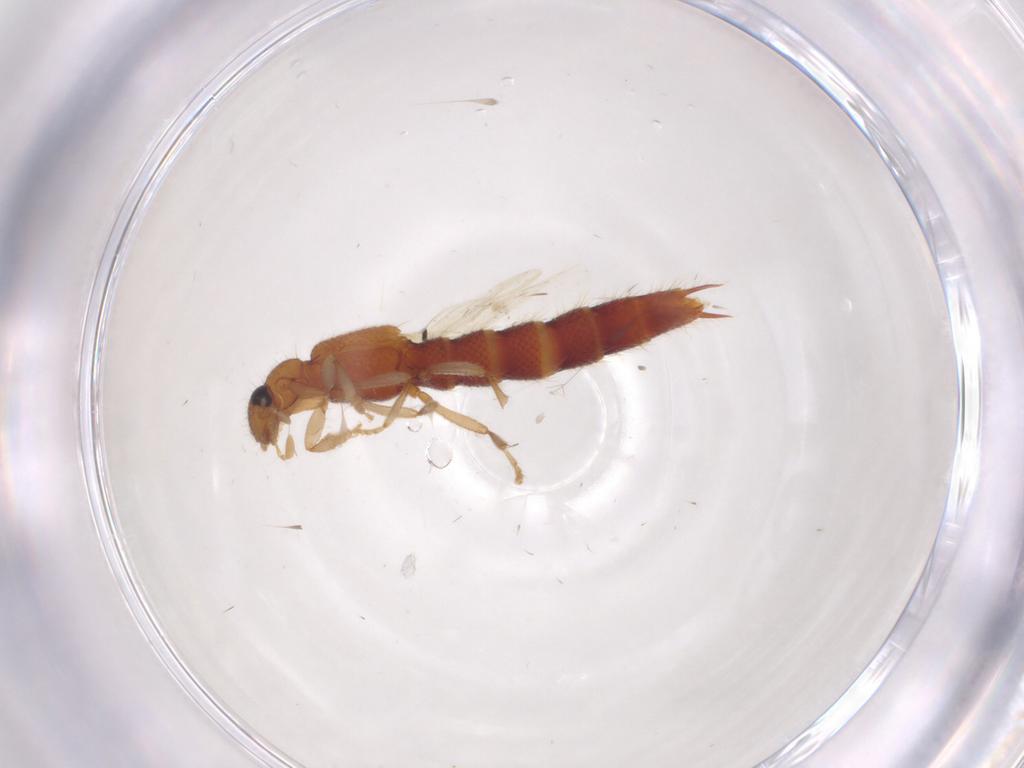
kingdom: Animalia
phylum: Arthropoda
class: Insecta
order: Coleoptera
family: Staphylinidae
